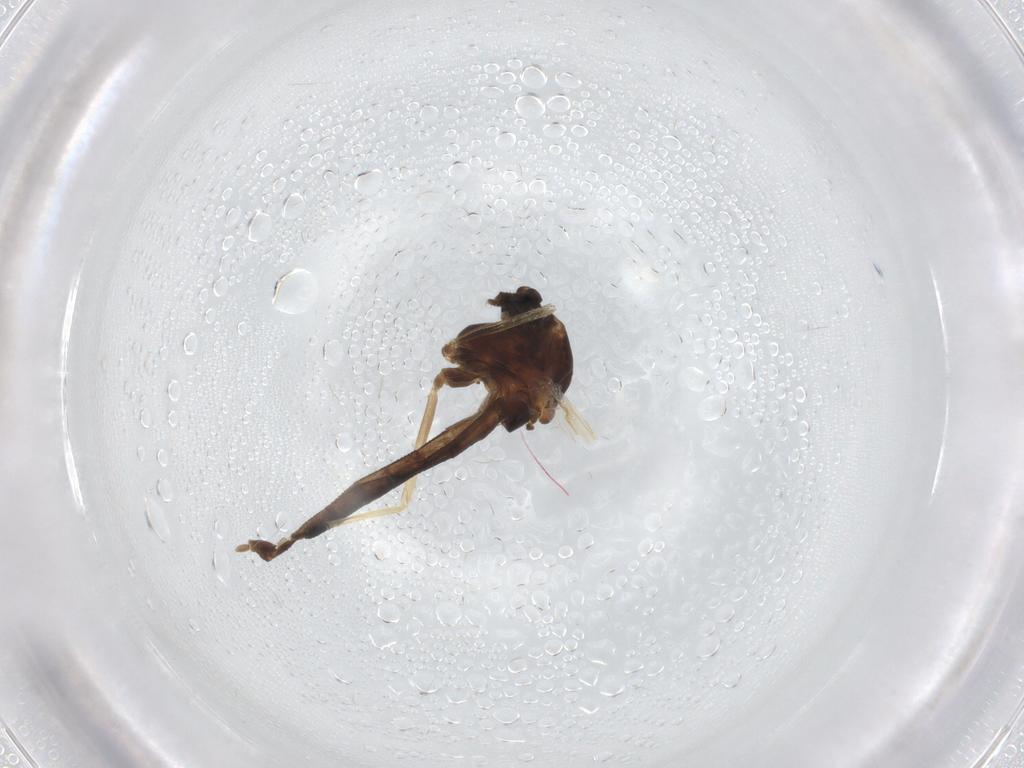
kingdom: Animalia
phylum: Arthropoda
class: Insecta
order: Diptera
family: Chironomidae
